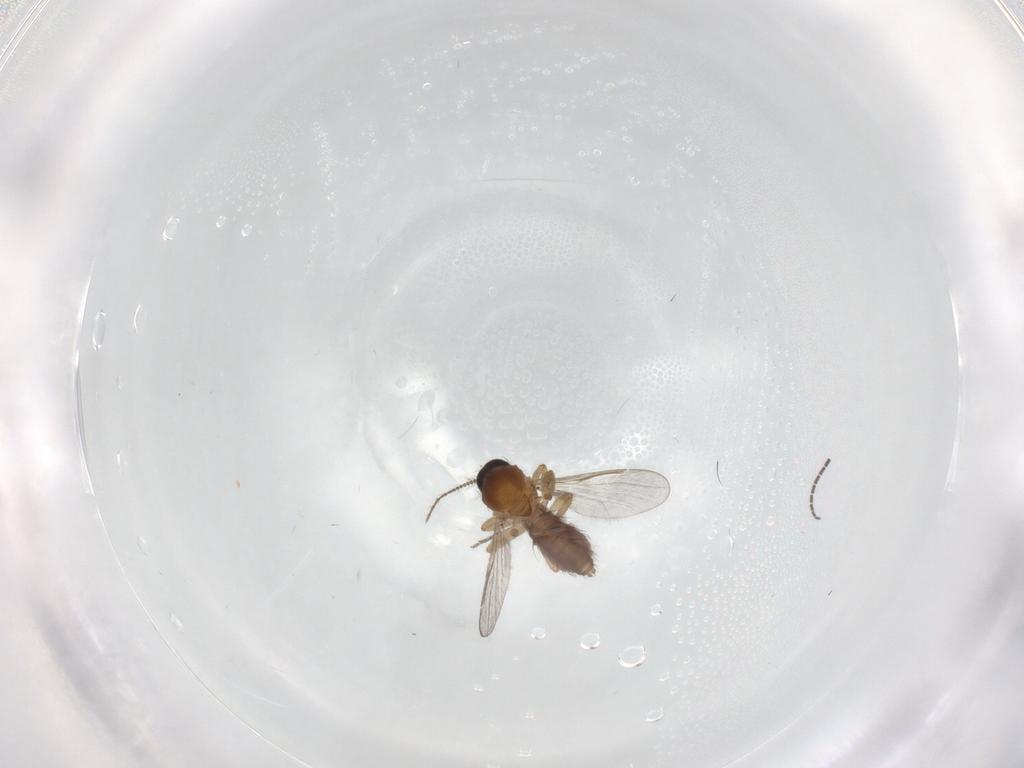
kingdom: Animalia
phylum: Arthropoda
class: Insecta
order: Diptera
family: Ceratopogonidae
